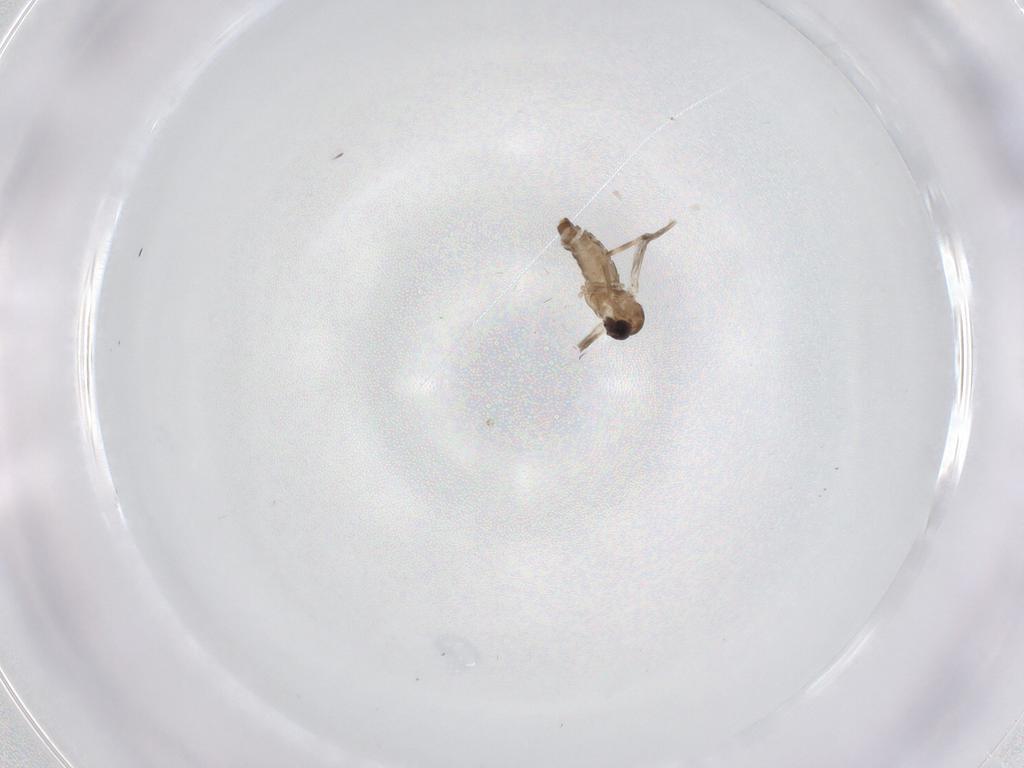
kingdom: Animalia
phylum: Arthropoda
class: Insecta
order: Diptera
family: Ceratopogonidae
